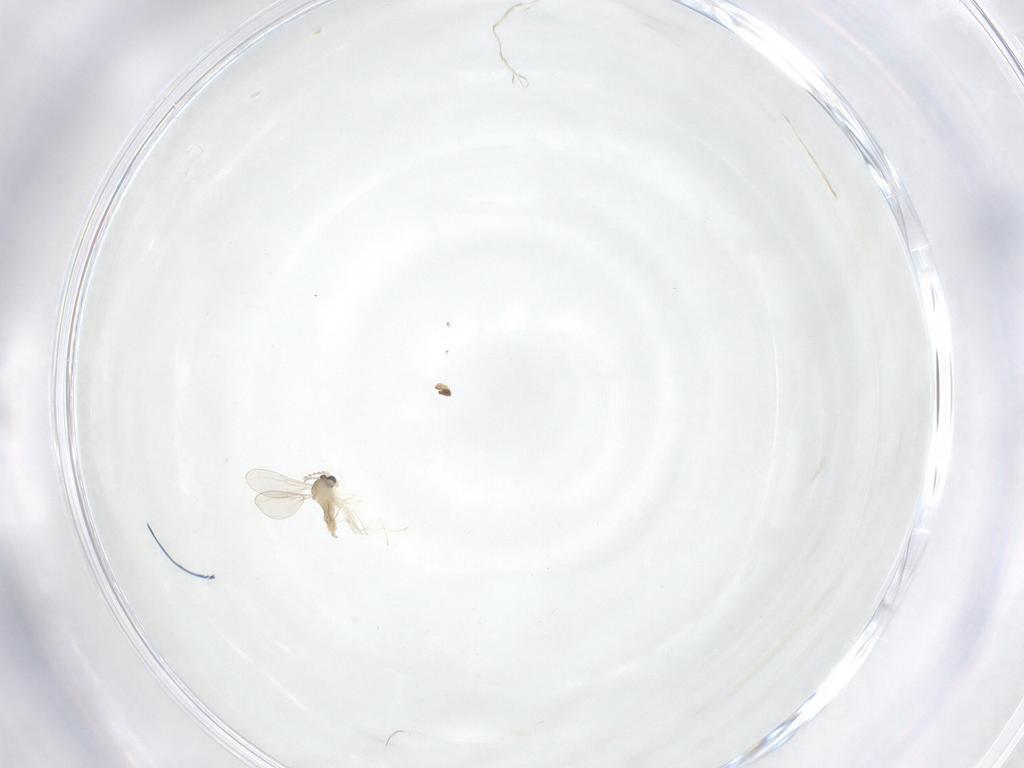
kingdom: Animalia
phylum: Arthropoda
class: Insecta
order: Diptera
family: Cecidomyiidae
